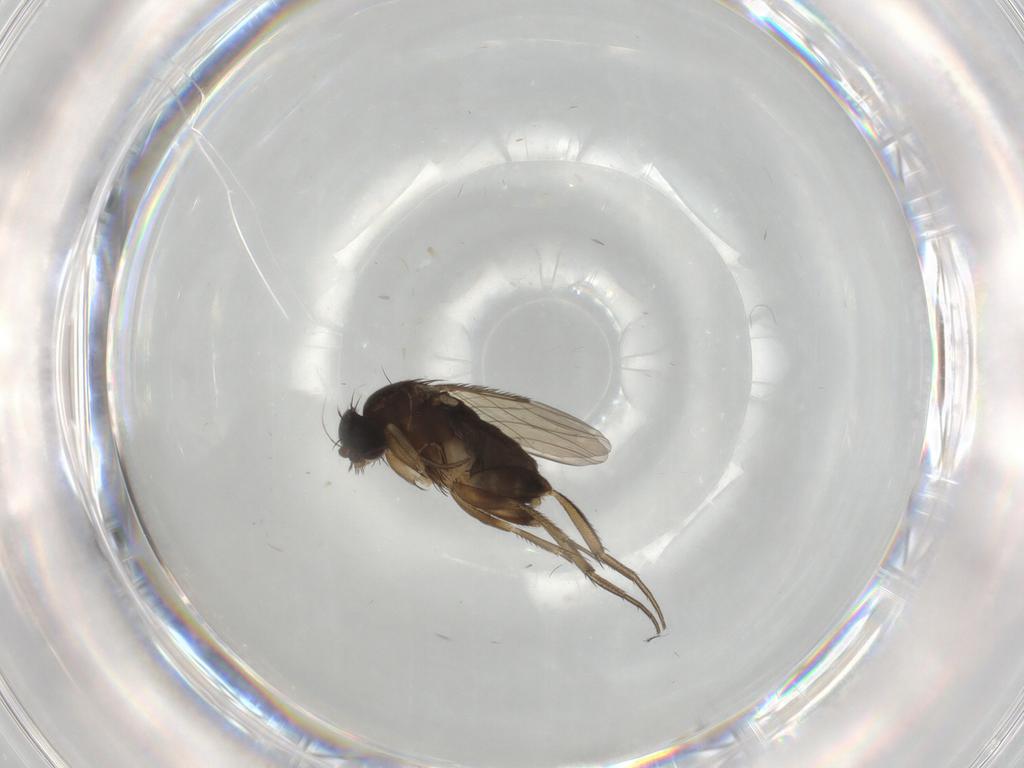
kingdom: Animalia
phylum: Arthropoda
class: Insecta
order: Diptera
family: Phoridae
